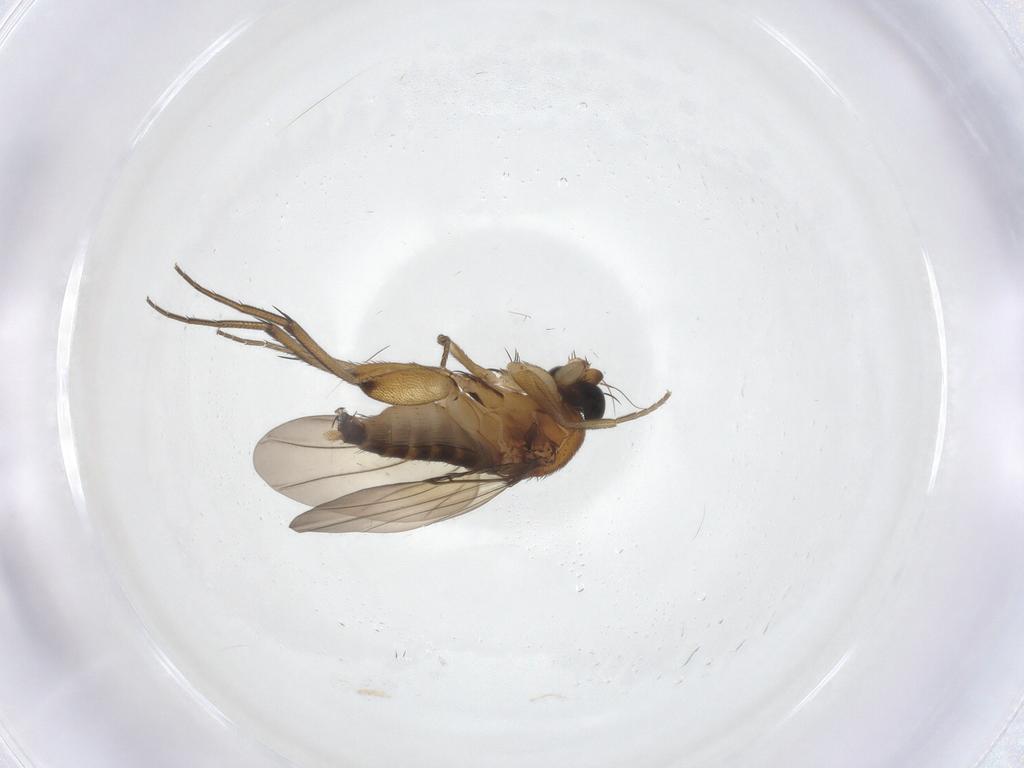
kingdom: Animalia
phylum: Arthropoda
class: Insecta
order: Diptera
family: Phoridae
